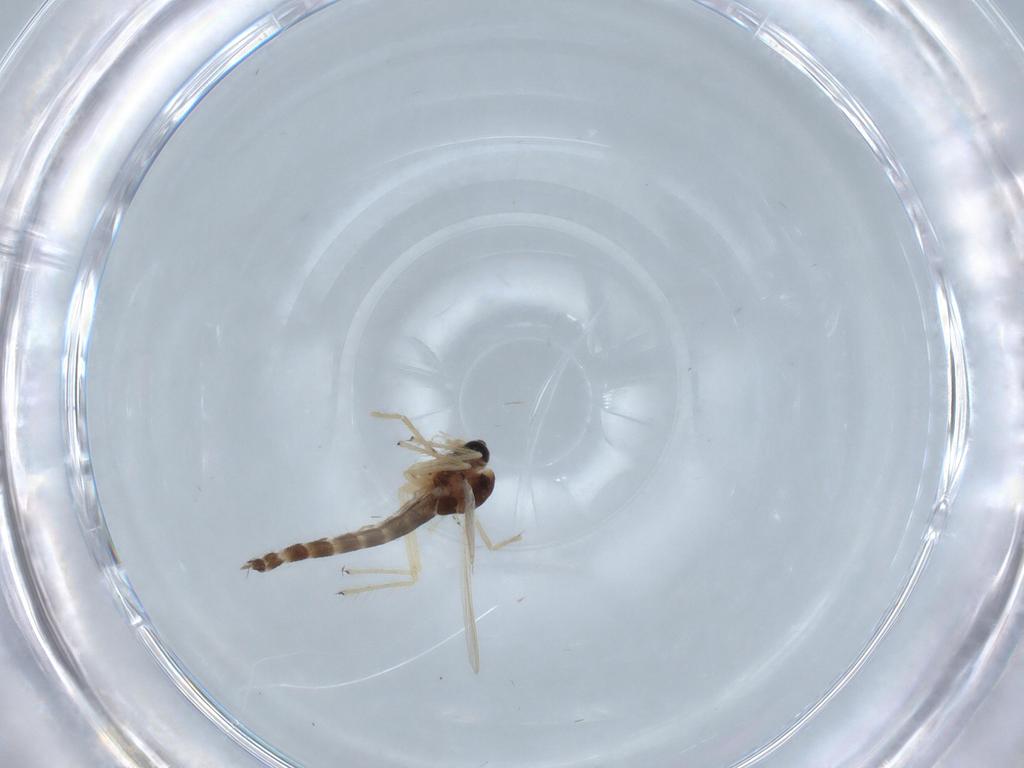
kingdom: Animalia
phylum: Arthropoda
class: Insecta
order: Diptera
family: Chironomidae
